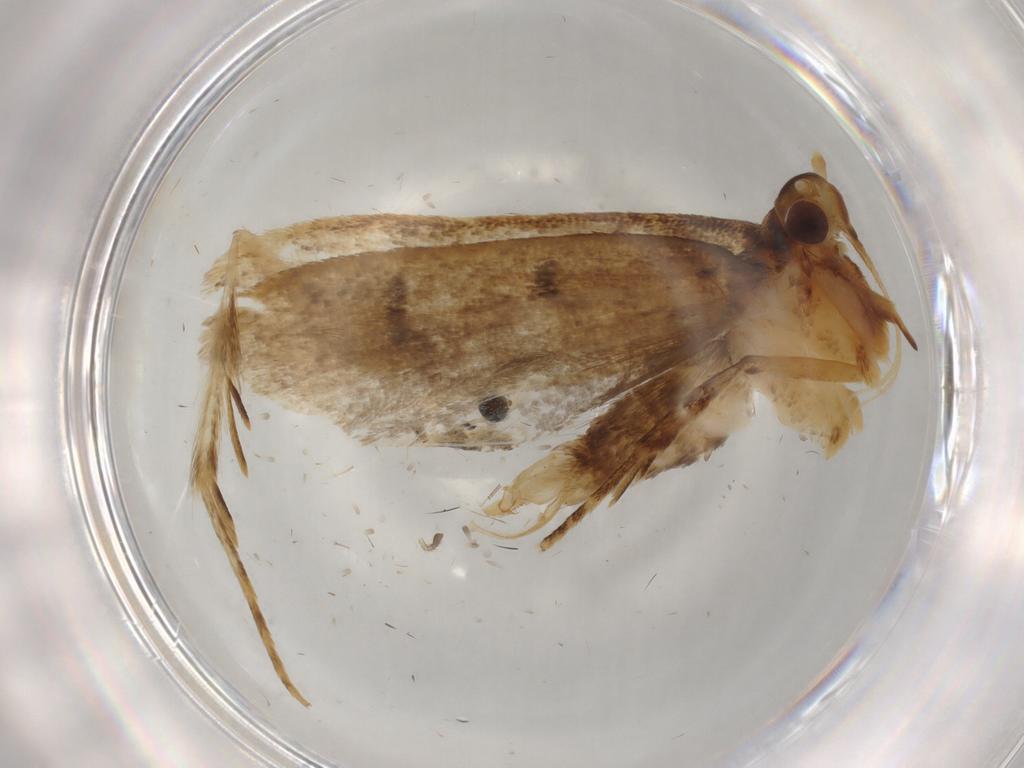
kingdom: Animalia
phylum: Arthropoda
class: Insecta
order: Lepidoptera
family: Lecithoceridae
